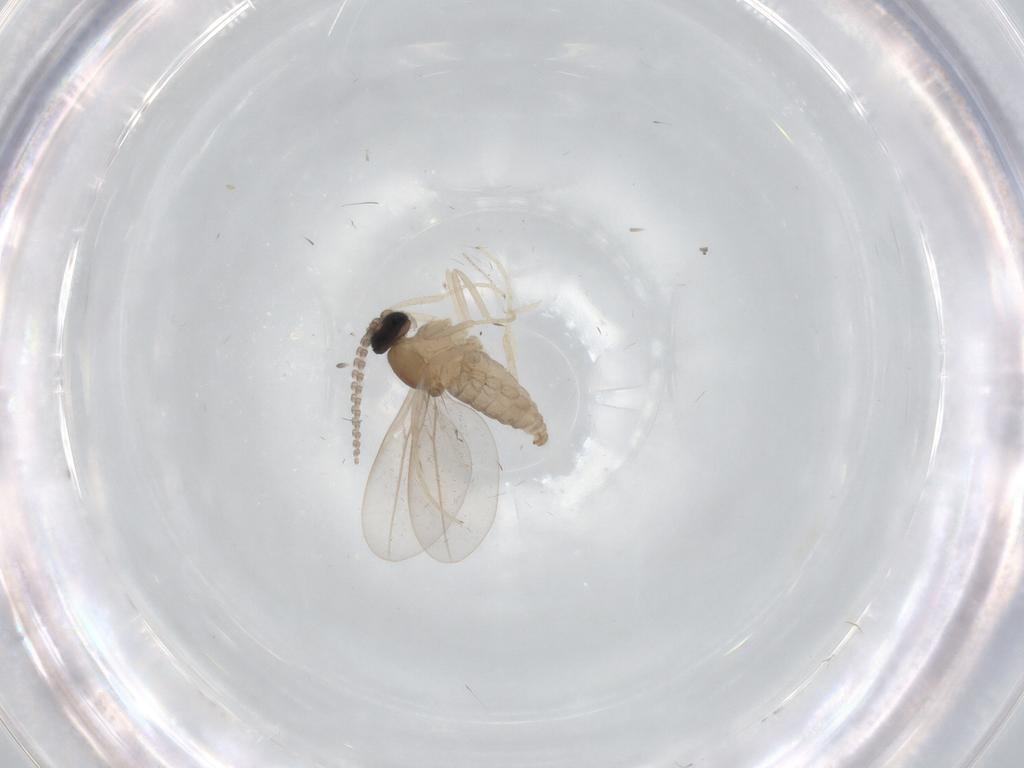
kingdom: Animalia
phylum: Arthropoda
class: Insecta
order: Diptera
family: Cecidomyiidae
